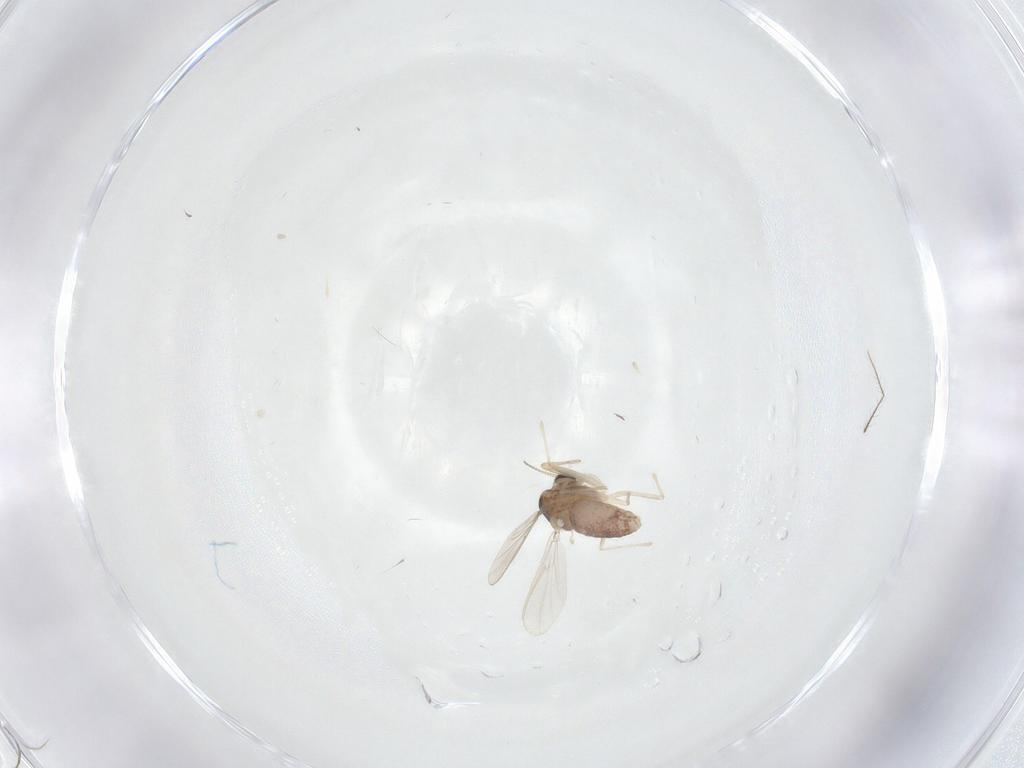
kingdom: Animalia
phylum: Arthropoda
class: Insecta
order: Diptera
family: Chironomidae
